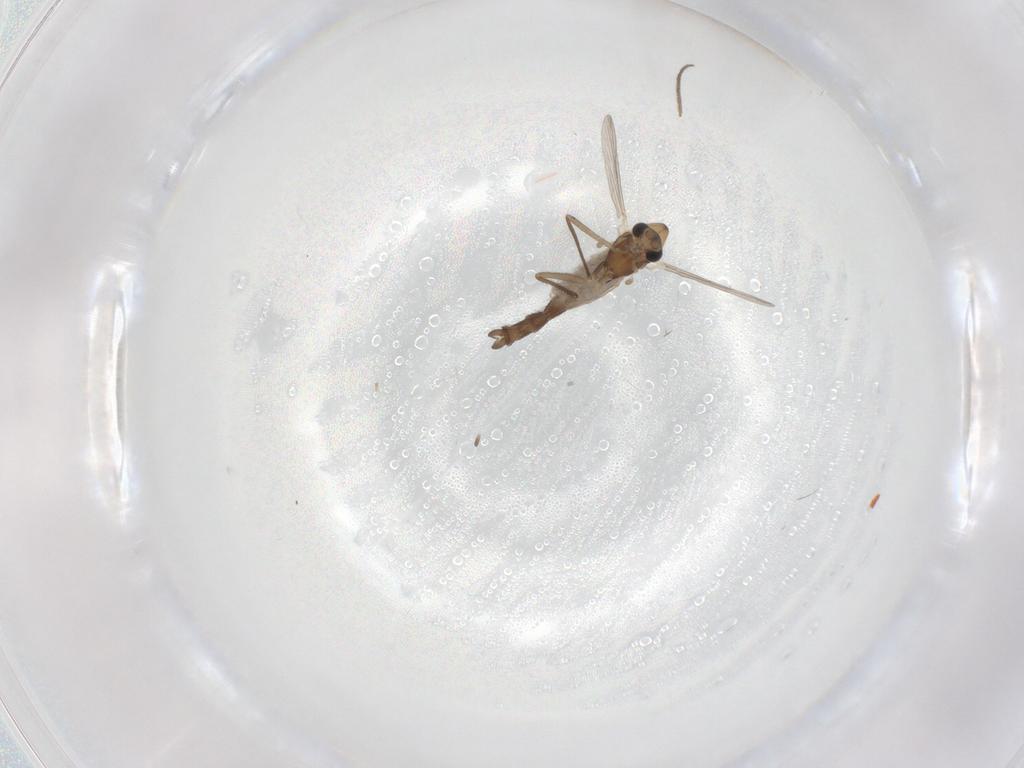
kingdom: Animalia
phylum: Arthropoda
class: Insecta
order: Diptera
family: Chironomidae
